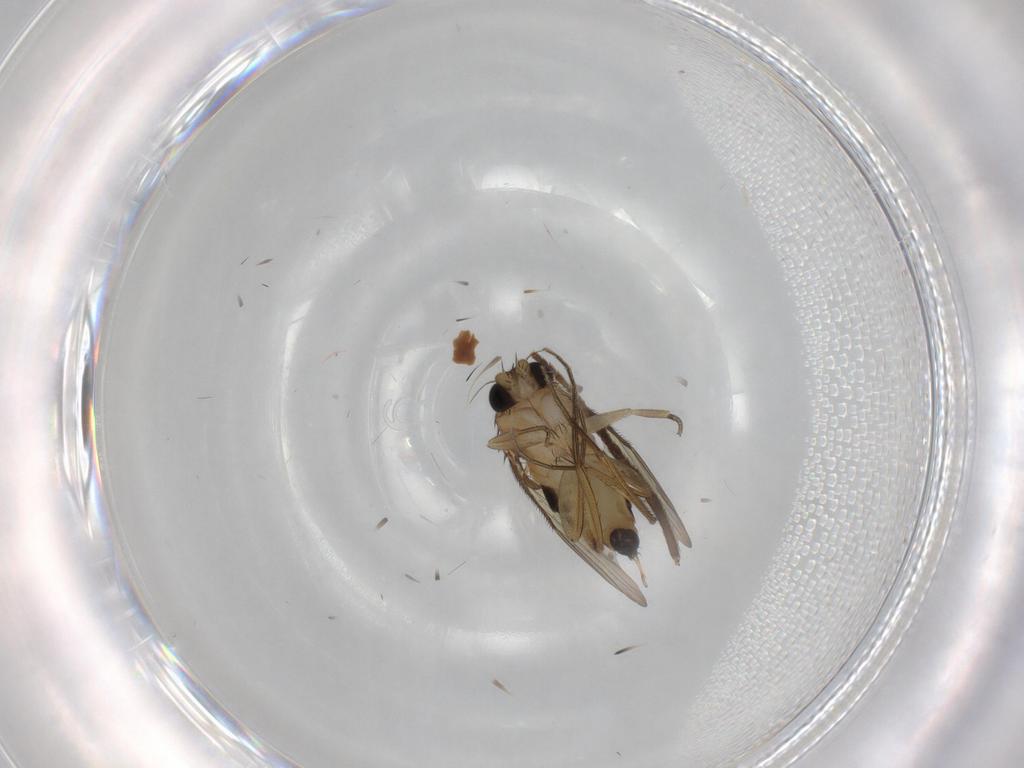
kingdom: Animalia
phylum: Arthropoda
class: Insecta
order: Diptera
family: Phoridae
